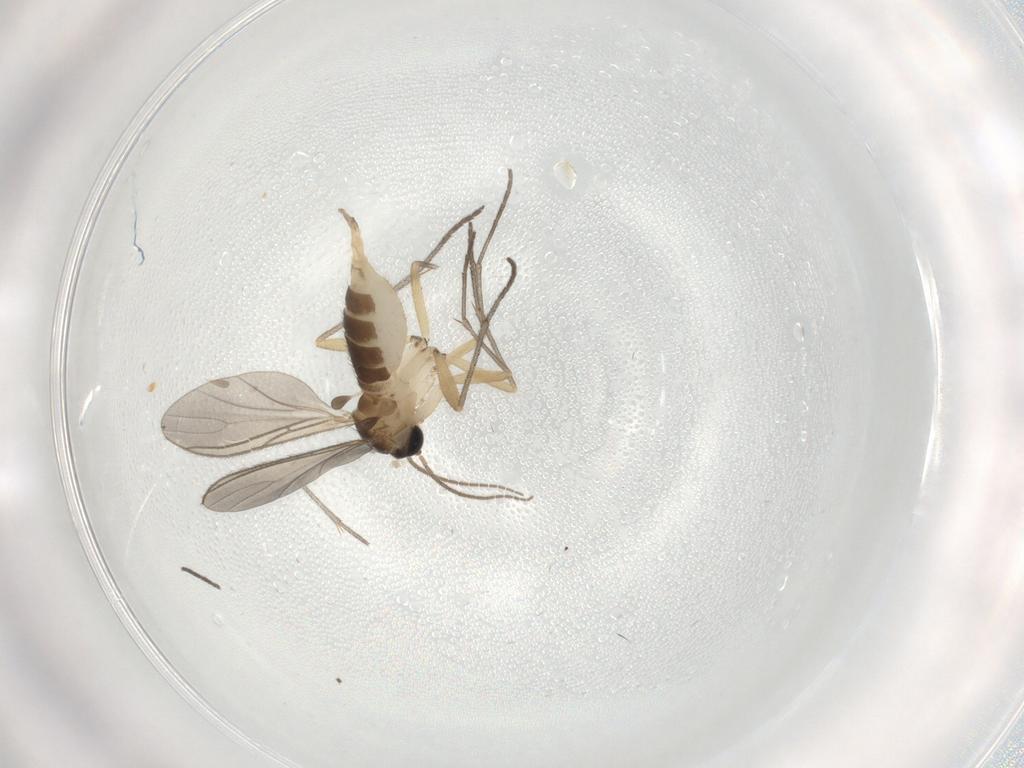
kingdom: Animalia
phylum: Arthropoda
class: Insecta
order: Diptera
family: Sciaridae
